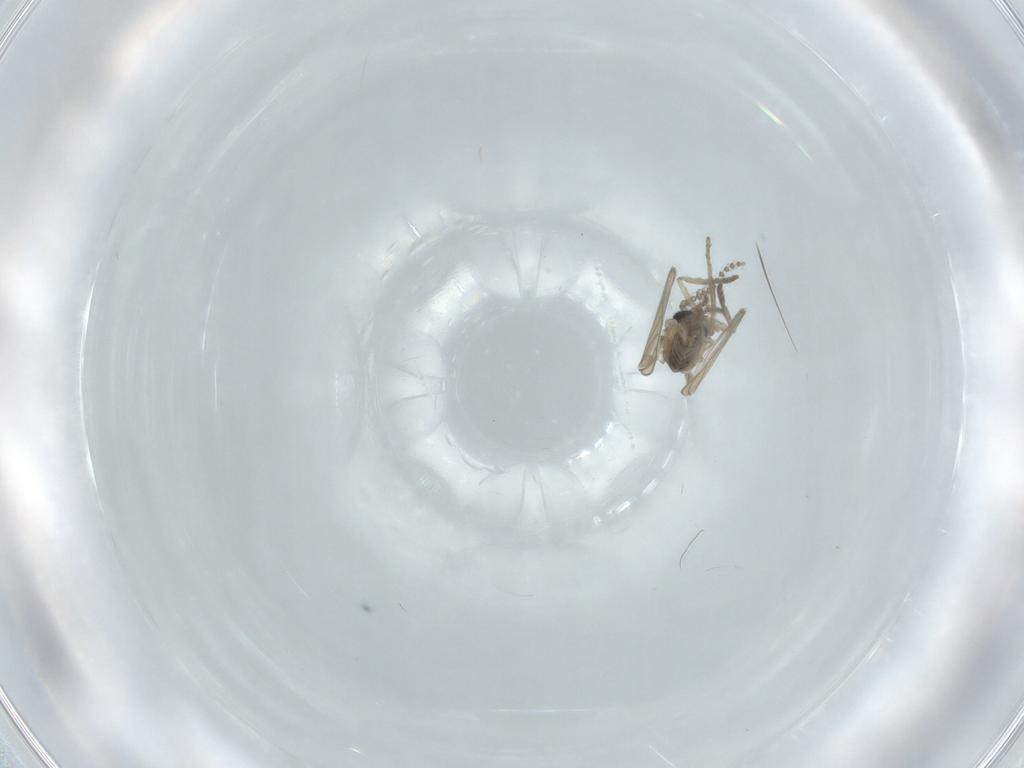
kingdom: Animalia
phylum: Arthropoda
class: Insecta
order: Diptera
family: Psychodidae
